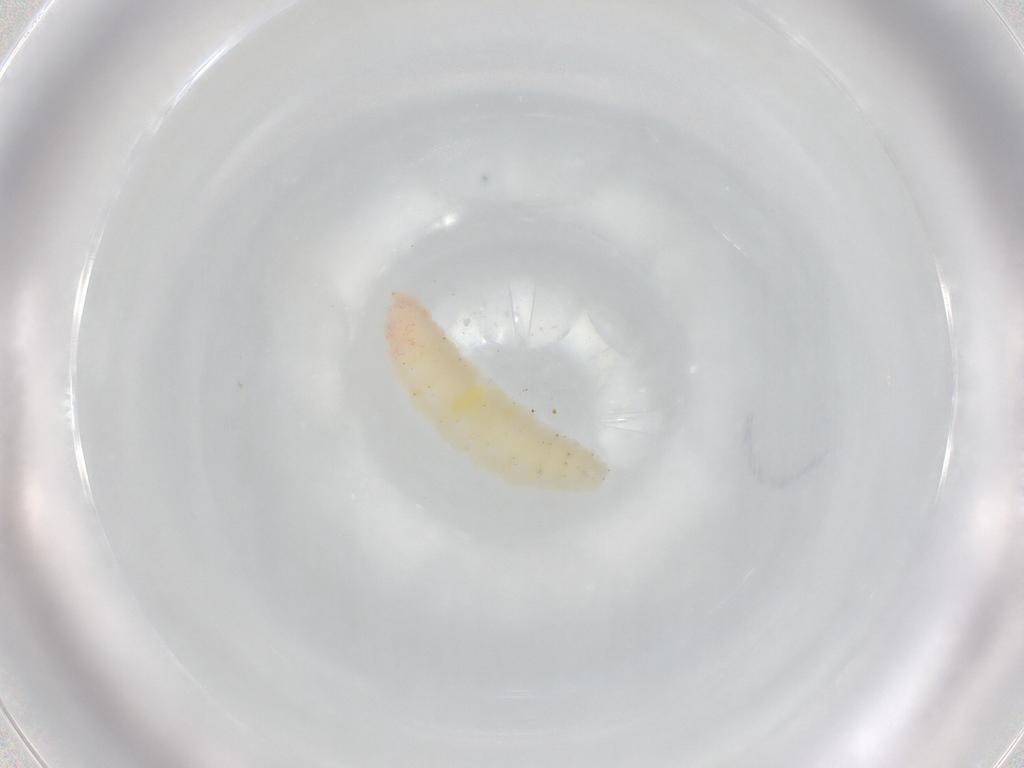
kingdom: Animalia
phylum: Arthropoda
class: Insecta
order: Diptera
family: Cecidomyiidae
